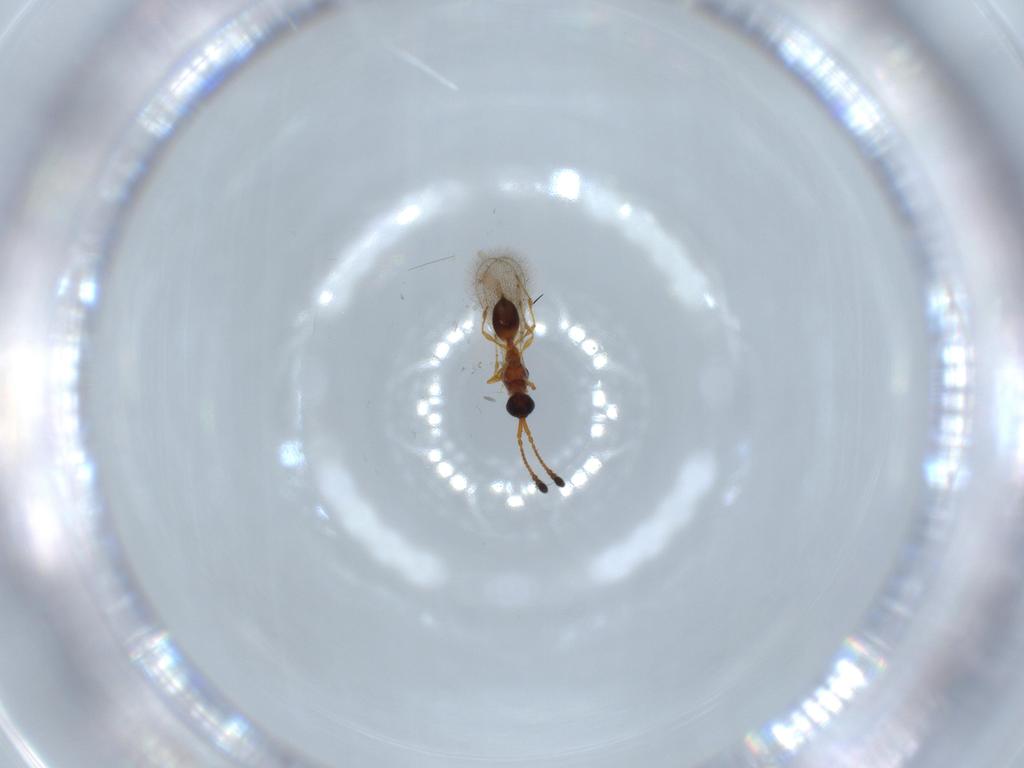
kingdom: Animalia
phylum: Arthropoda
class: Insecta
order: Hymenoptera
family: Diapriidae
